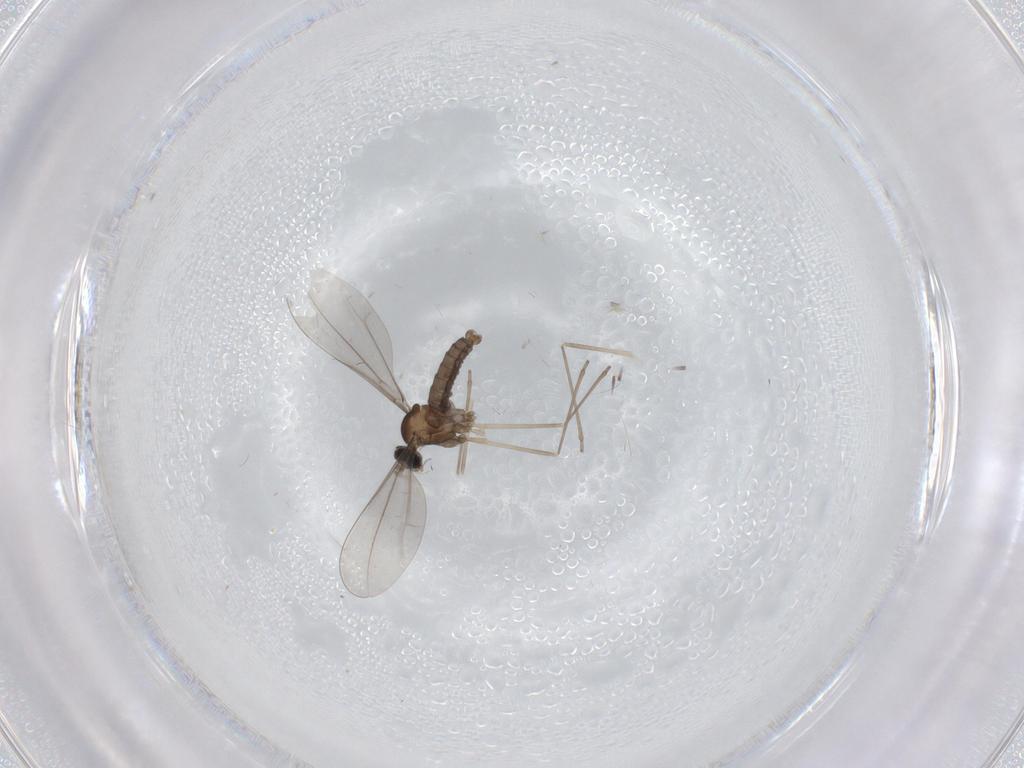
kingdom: Animalia
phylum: Arthropoda
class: Insecta
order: Diptera
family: Cecidomyiidae
